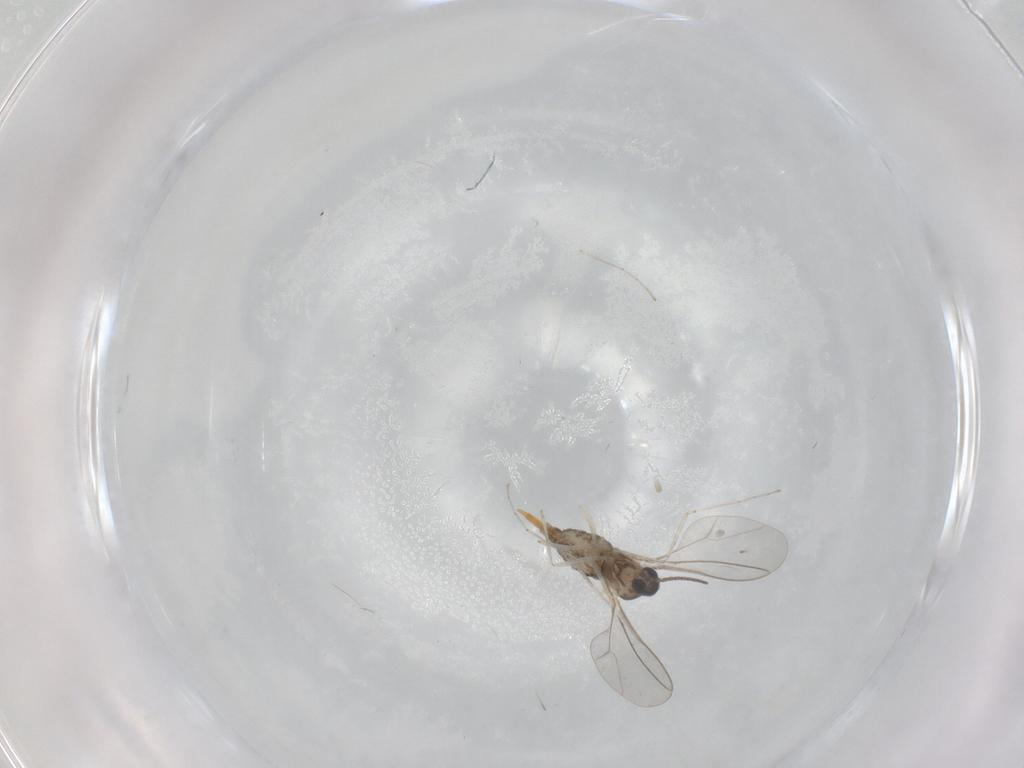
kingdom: Animalia
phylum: Arthropoda
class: Insecta
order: Diptera
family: Cecidomyiidae
